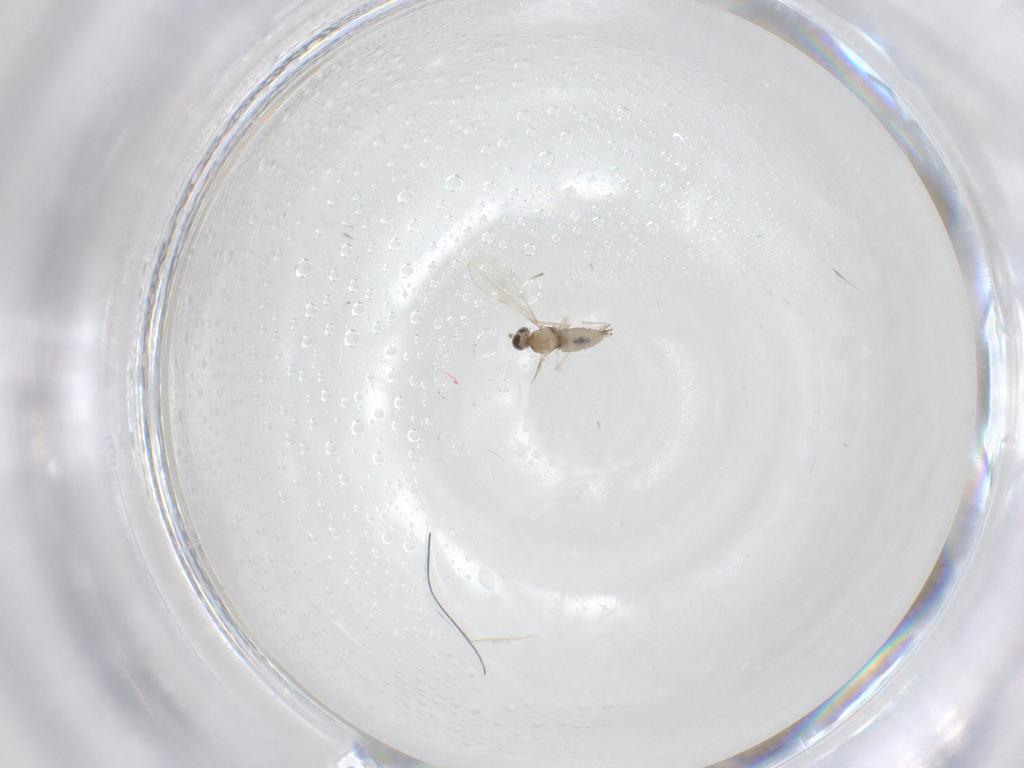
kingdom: Animalia
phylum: Arthropoda
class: Insecta
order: Diptera
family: Cecidomyiidae
